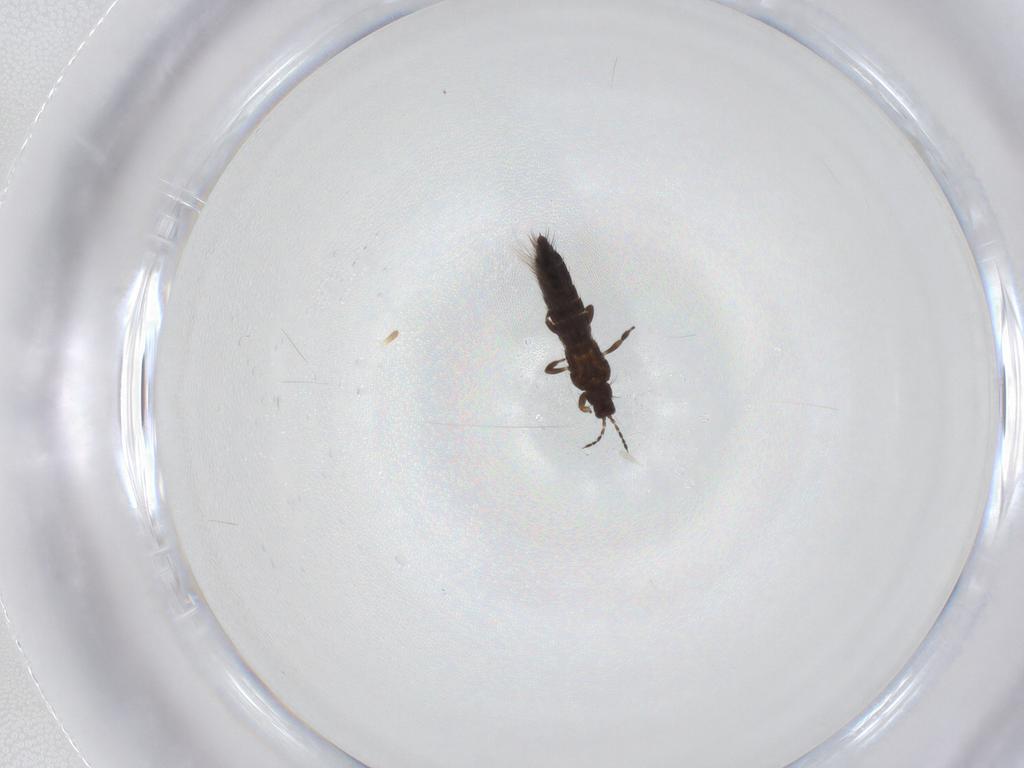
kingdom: Animalia
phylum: Arthropoda
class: Insecta
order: Thysanoptera
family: Thripidae
